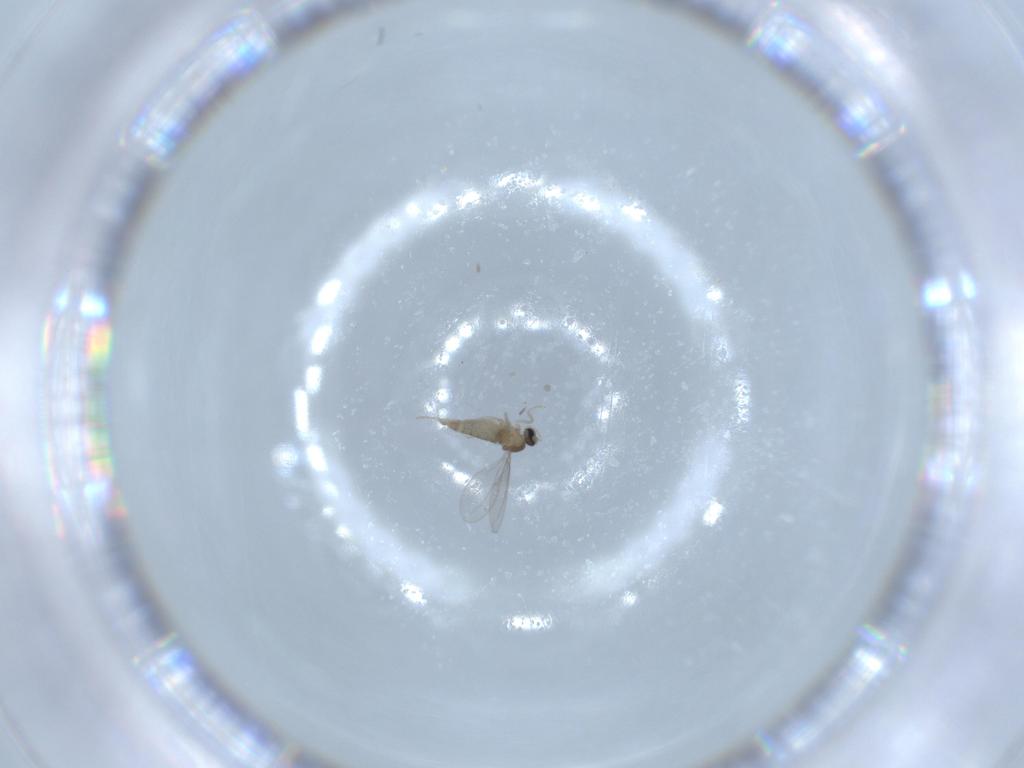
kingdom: Animalia
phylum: Arthropoda
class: Insecta
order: Diptera
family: Cecidomyiidae
